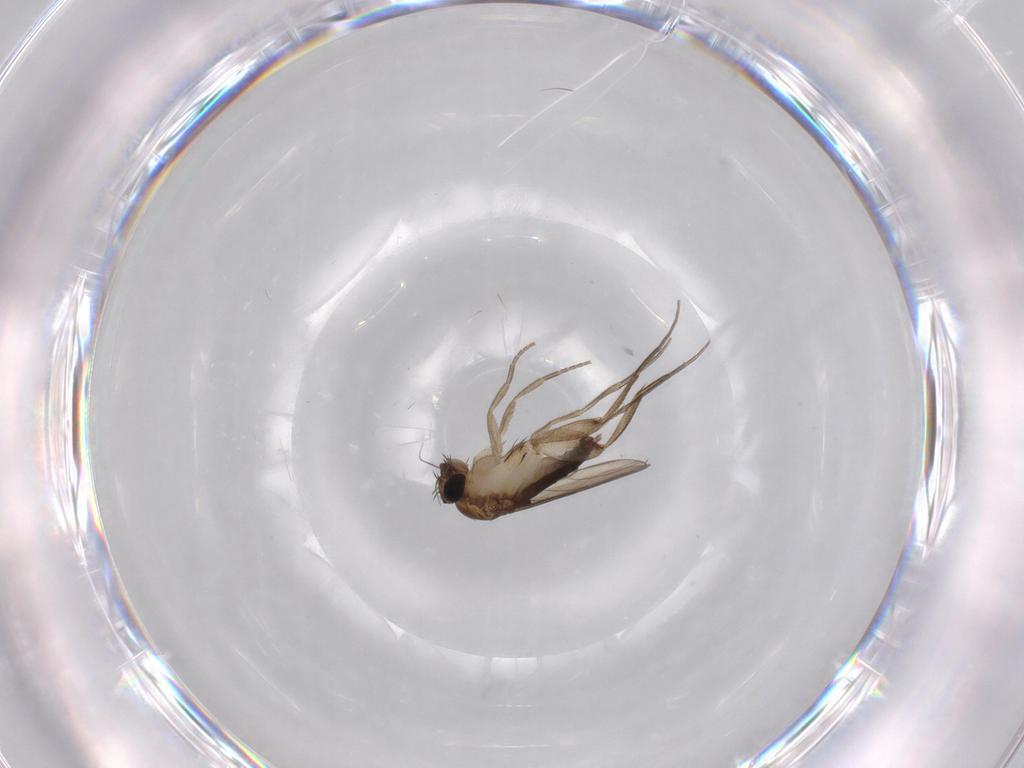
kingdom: Animalia
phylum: Arthropoda
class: Insecta
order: Diptera
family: Phoridae
